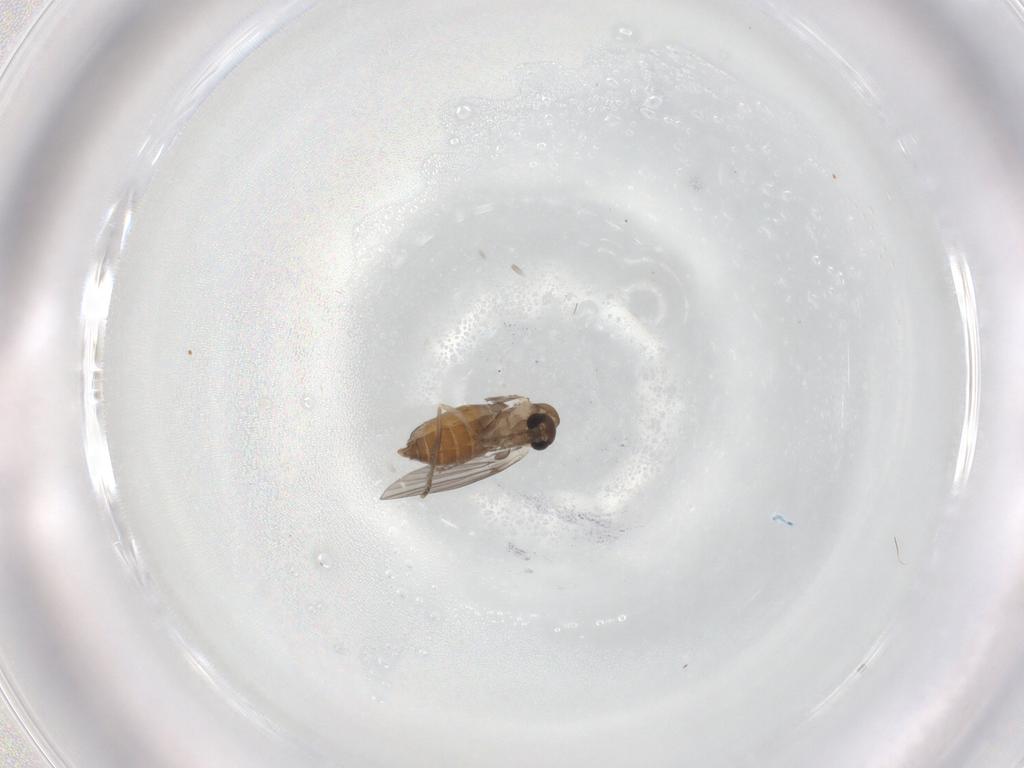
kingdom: Animalia
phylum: Arthropoda
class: Insecta
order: Diptera
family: Hybotidae
